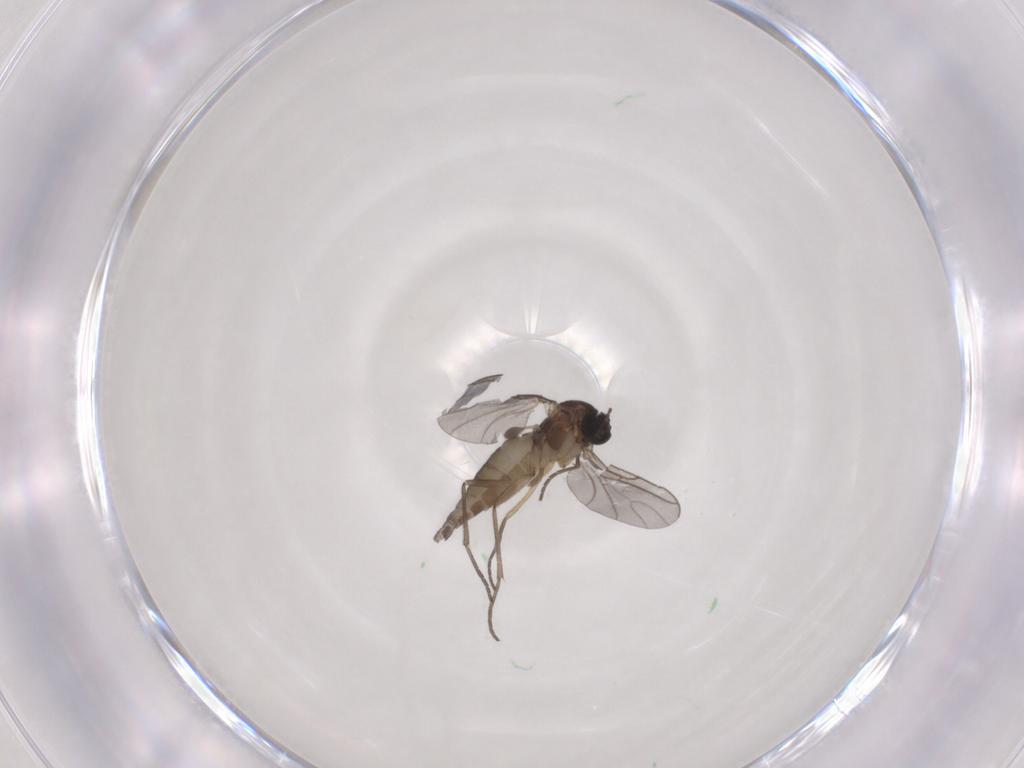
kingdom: Animalia
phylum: Arthropoda
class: Insecta
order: Diptera
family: Sciaridae
